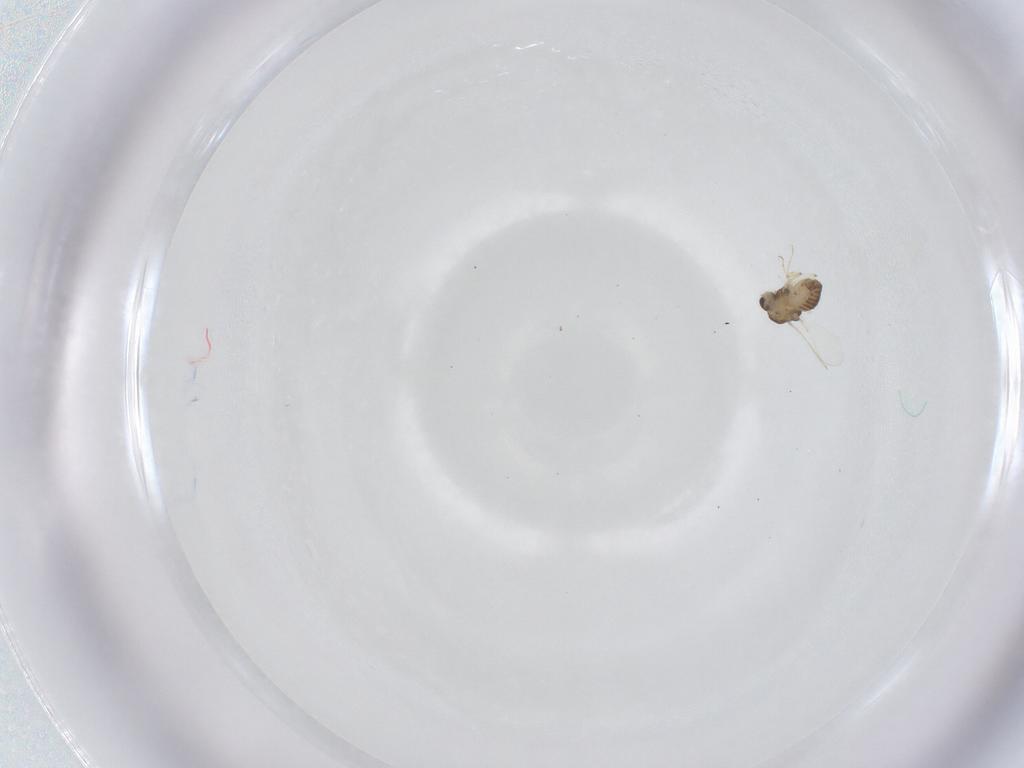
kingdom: Animalia
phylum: Arthropoda
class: Insecta
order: Diptera
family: Chironomidae
